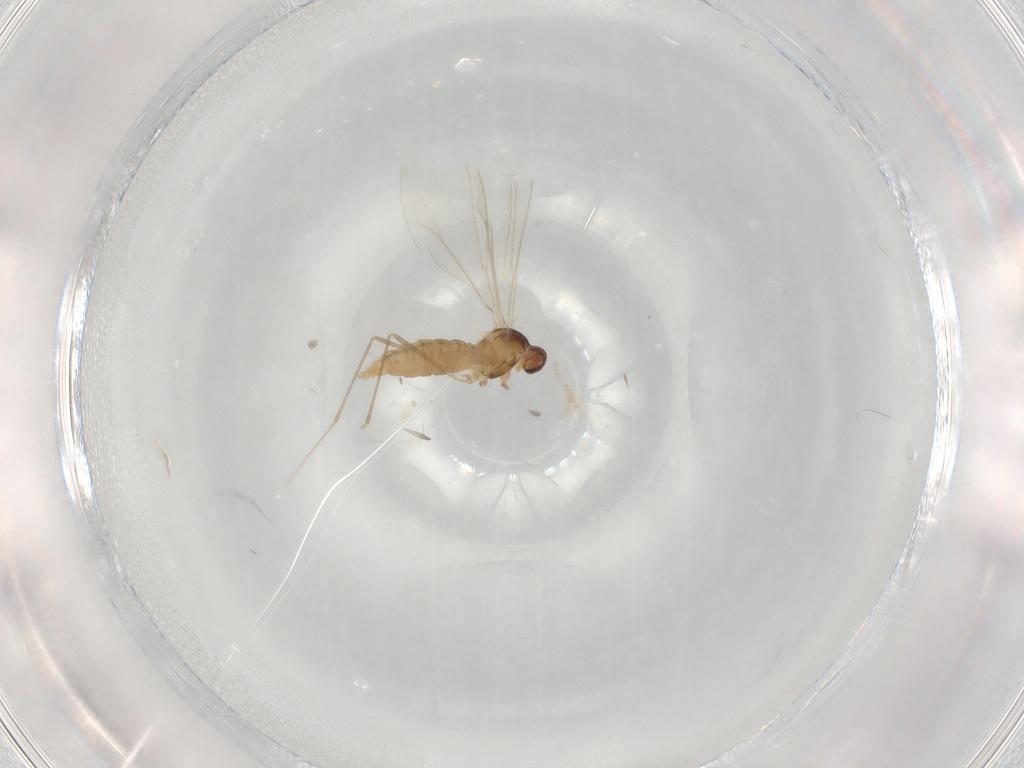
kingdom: Animalia
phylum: Arthropoda
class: Insecta
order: Diptera
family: Cecidomyiidae
